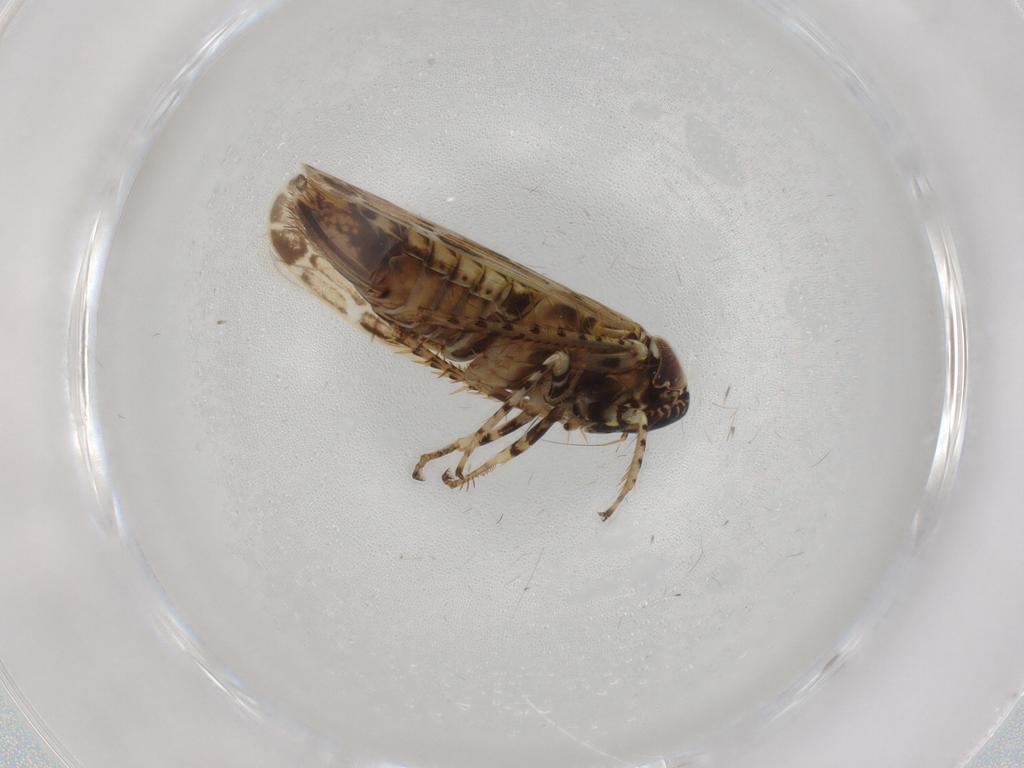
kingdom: Animalia
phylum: Arthropoda
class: Insecta
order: Hemiptera
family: Cicadellidae
